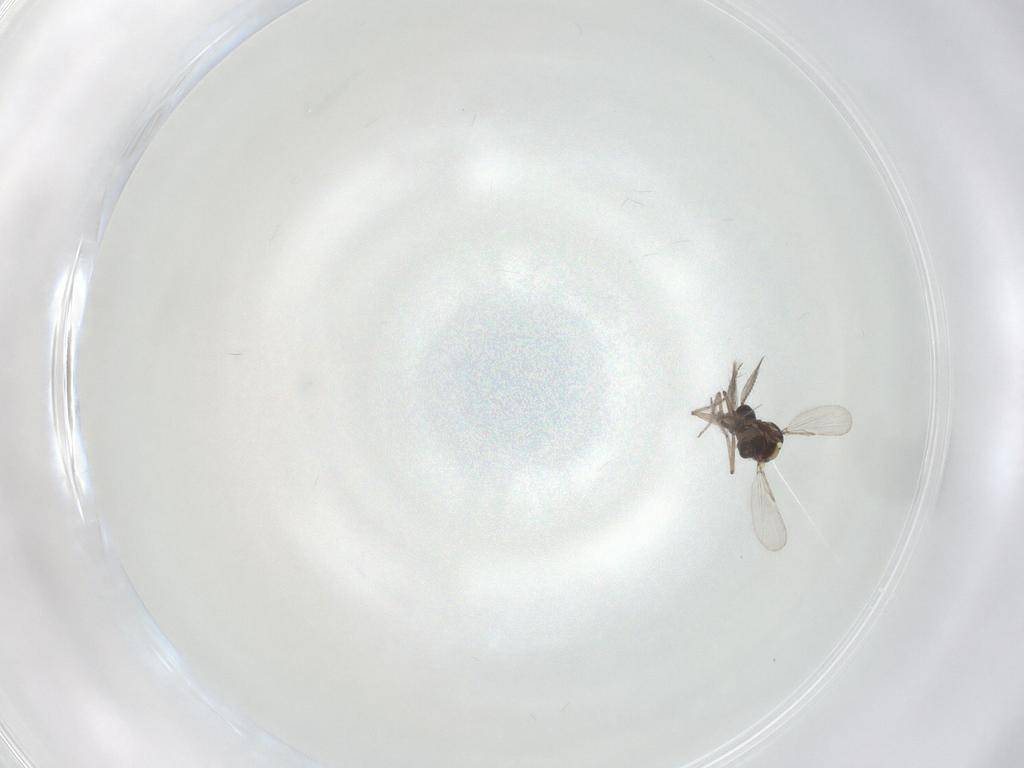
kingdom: Animalia
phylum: Arthropoda
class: Insecta
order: Diptera
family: Ceratopogonidae
